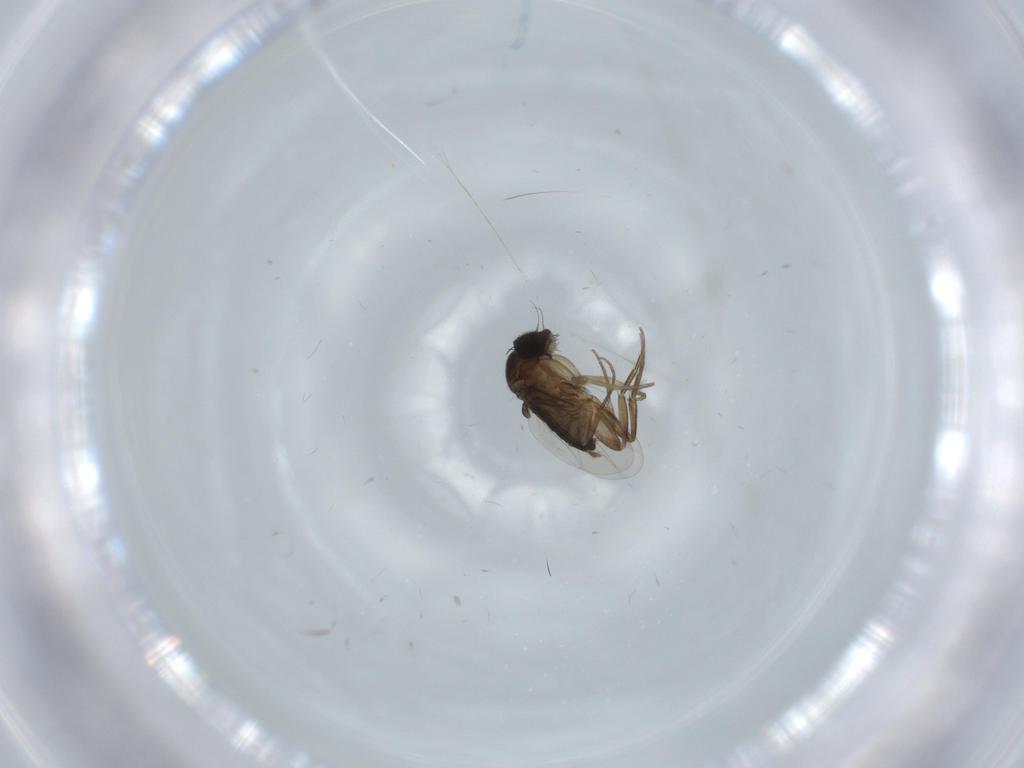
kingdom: Animalia
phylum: Arthropoda
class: Insecta
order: Diptera
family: Phoridae
